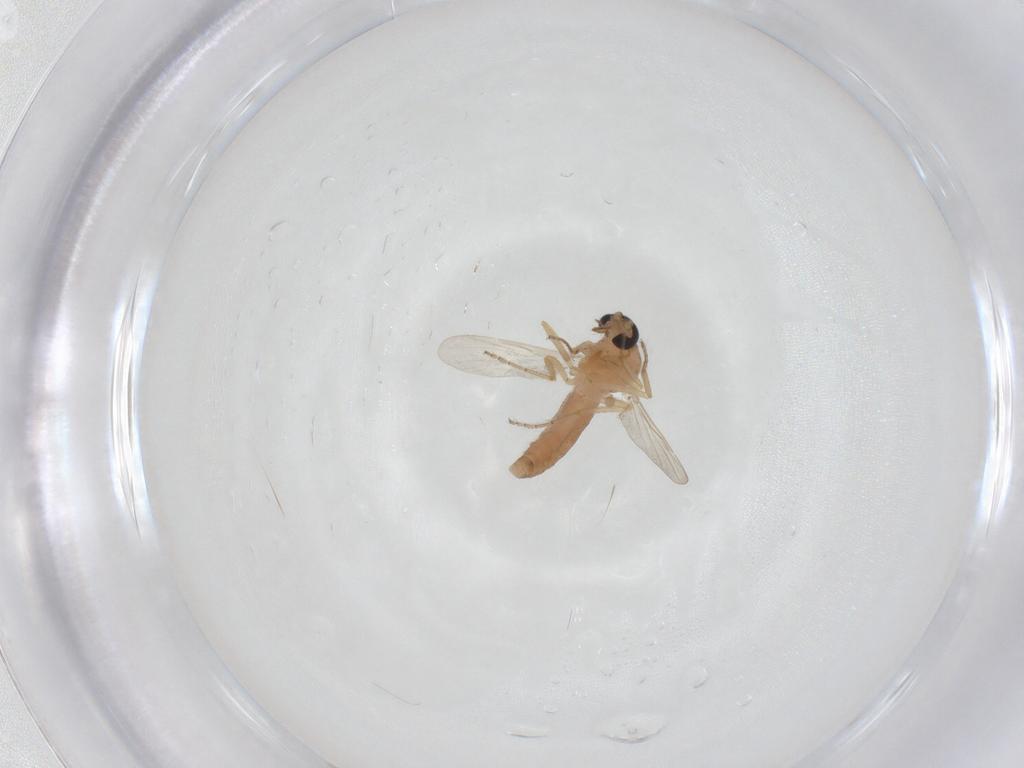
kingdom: Animalia
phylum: Arthropoda
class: Insecta
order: Diptera
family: Ceratopogonidae
